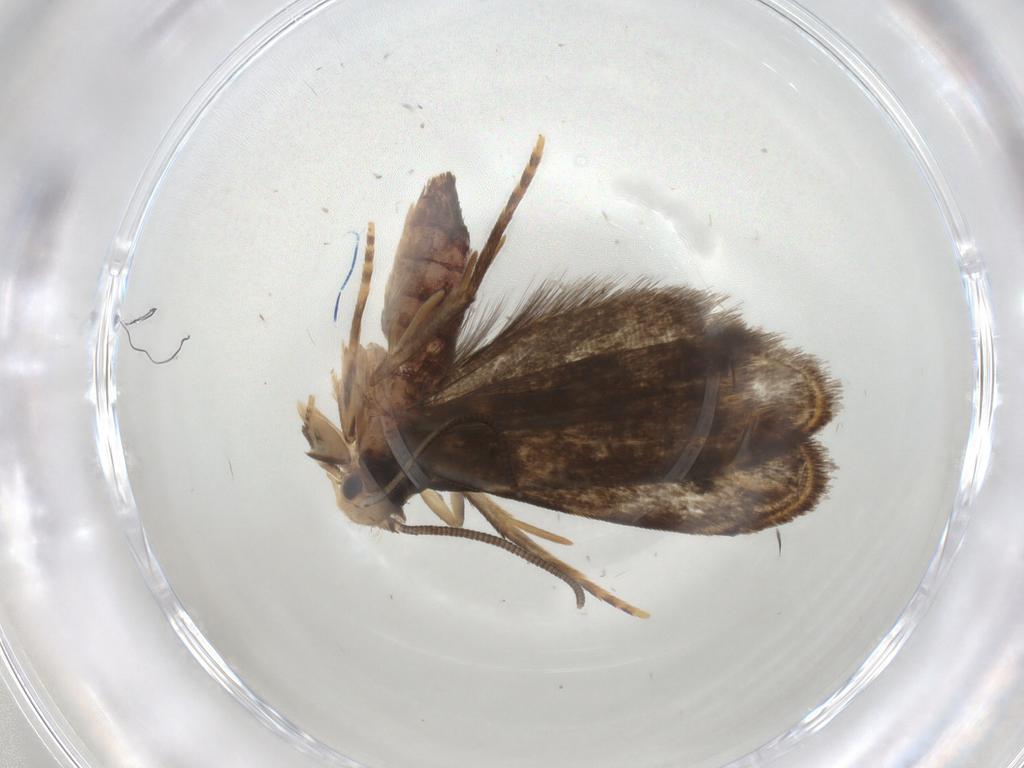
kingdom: Animalia
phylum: Arthropoda
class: Insecta
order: Lepidoptera
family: Dryadaulidae
